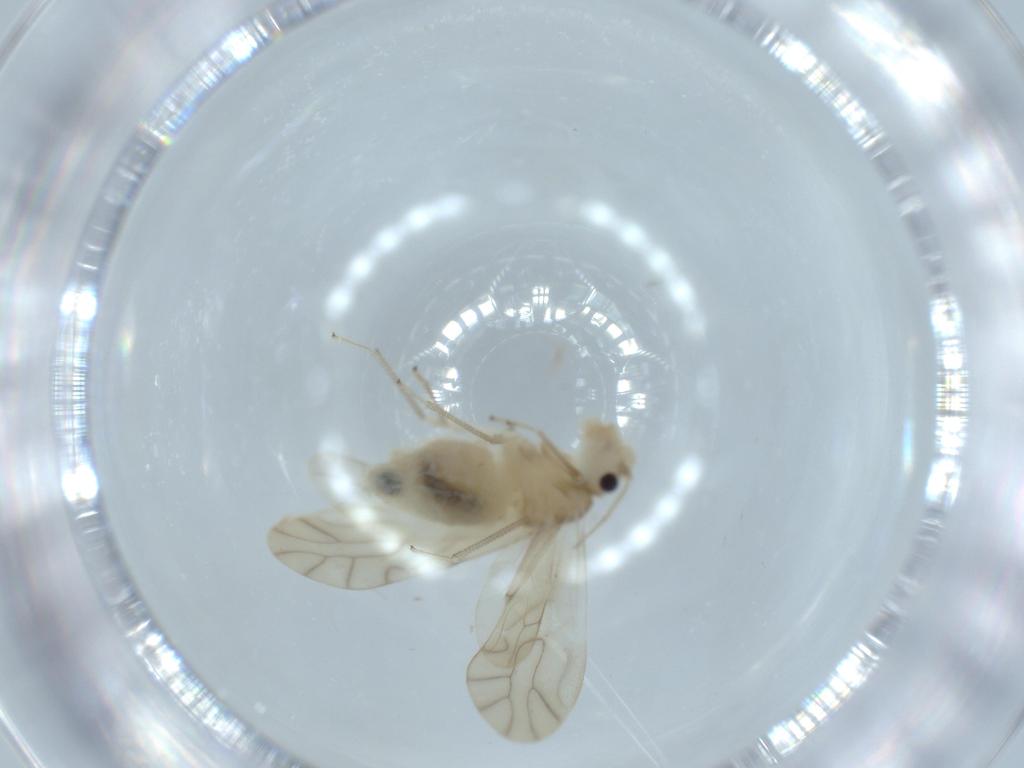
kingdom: Animalia
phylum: Arthropoda
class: Insecta
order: Psocodea
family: Caeciliusidae
